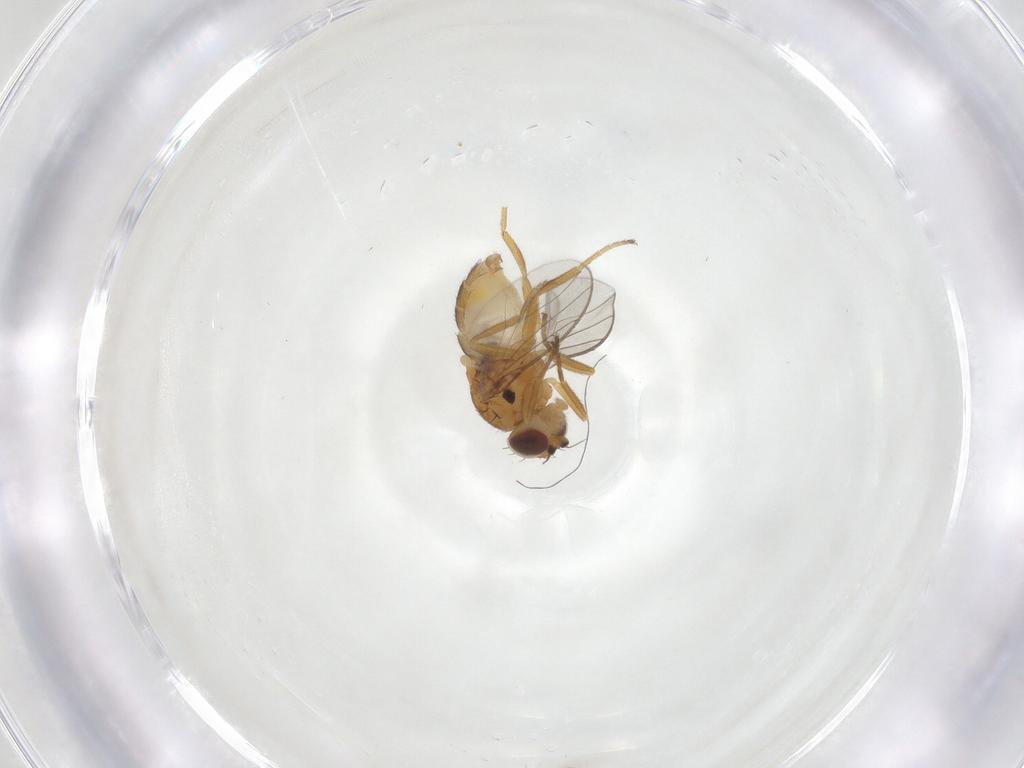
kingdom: Animalia
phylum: Arthropoda
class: Insecta
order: Diptera
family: Chloropidae
